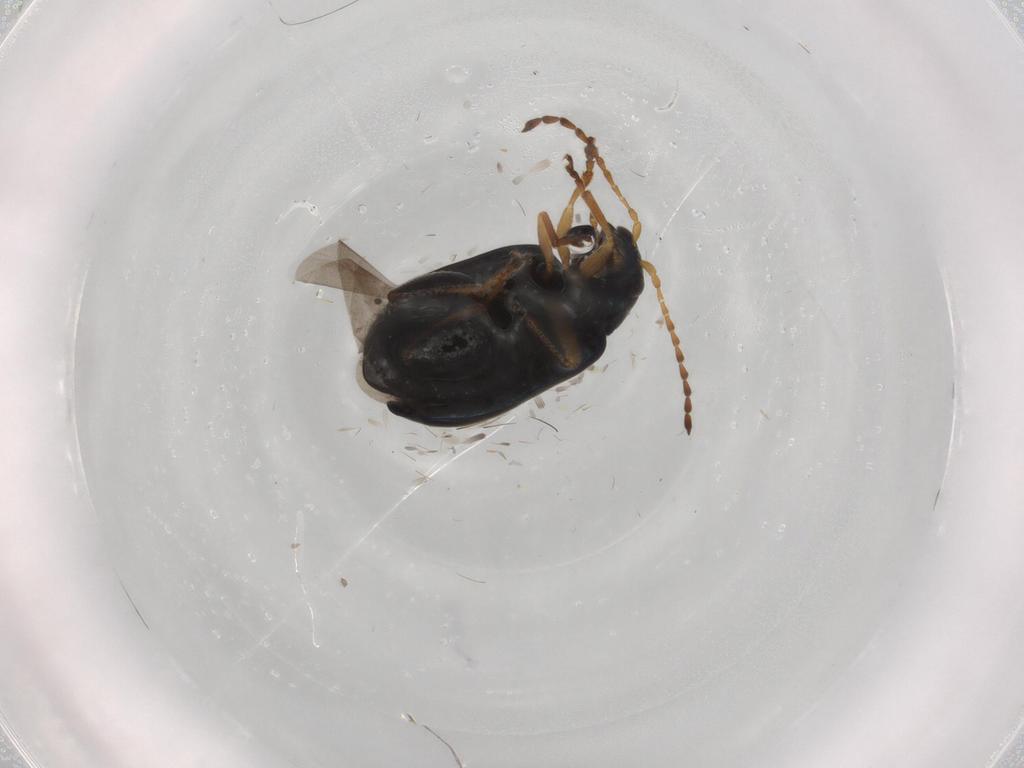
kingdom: Animalia
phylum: Arthropoda
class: Insecta
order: Coleoptera
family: Chrysomelidae
